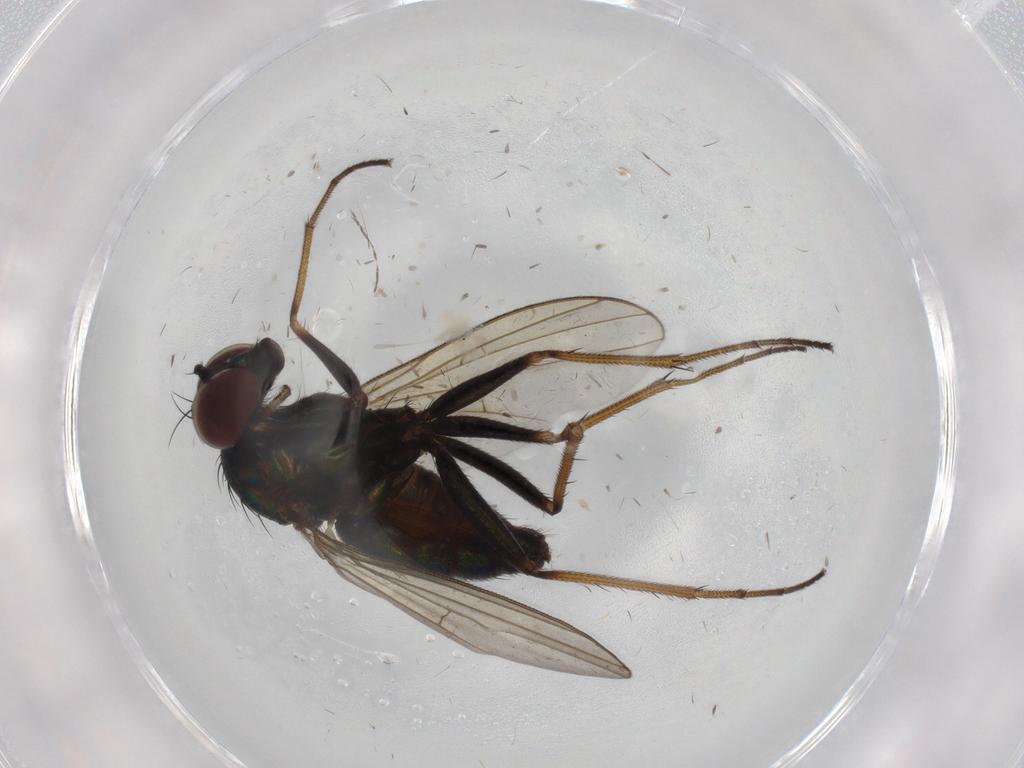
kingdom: Animalia
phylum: Arthropoda
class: Insecta
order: Diptera
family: Dolichopodidae
